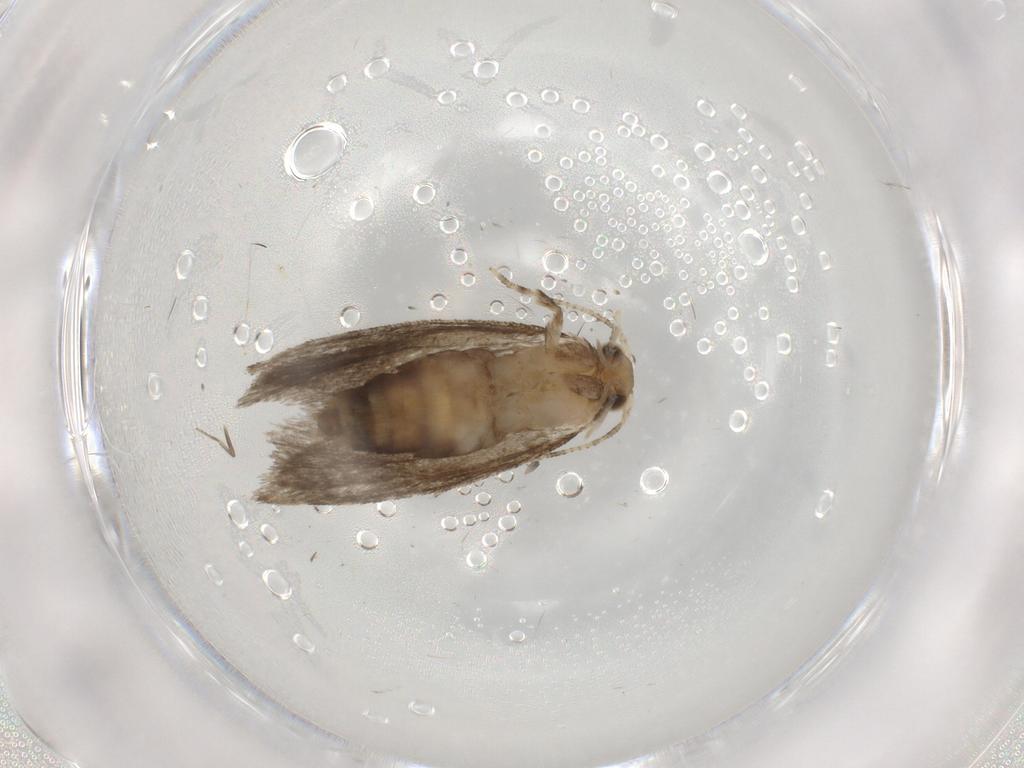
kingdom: Animalia
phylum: Arthropoda
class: Insecta
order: Lepidoptera
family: Tineidae
